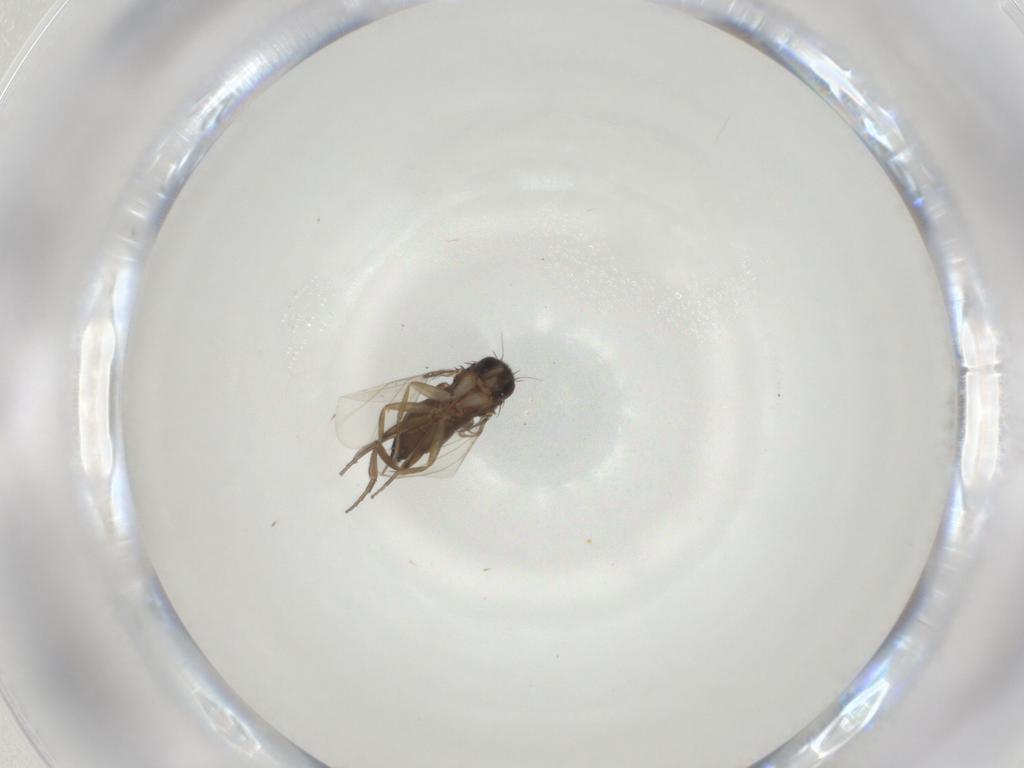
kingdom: Animalia
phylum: Arthropoda
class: Insecta
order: Diptera
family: Phoridae
